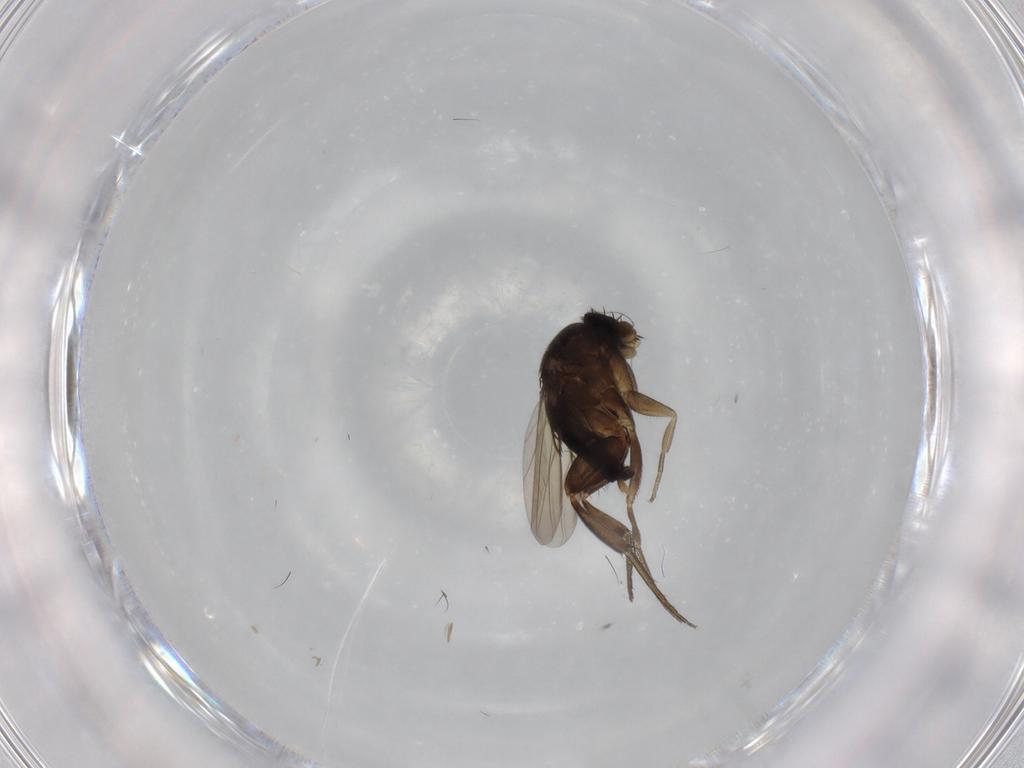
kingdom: Animalia
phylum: Arthropoda
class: Insecta
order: Diptera
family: Phoridae
